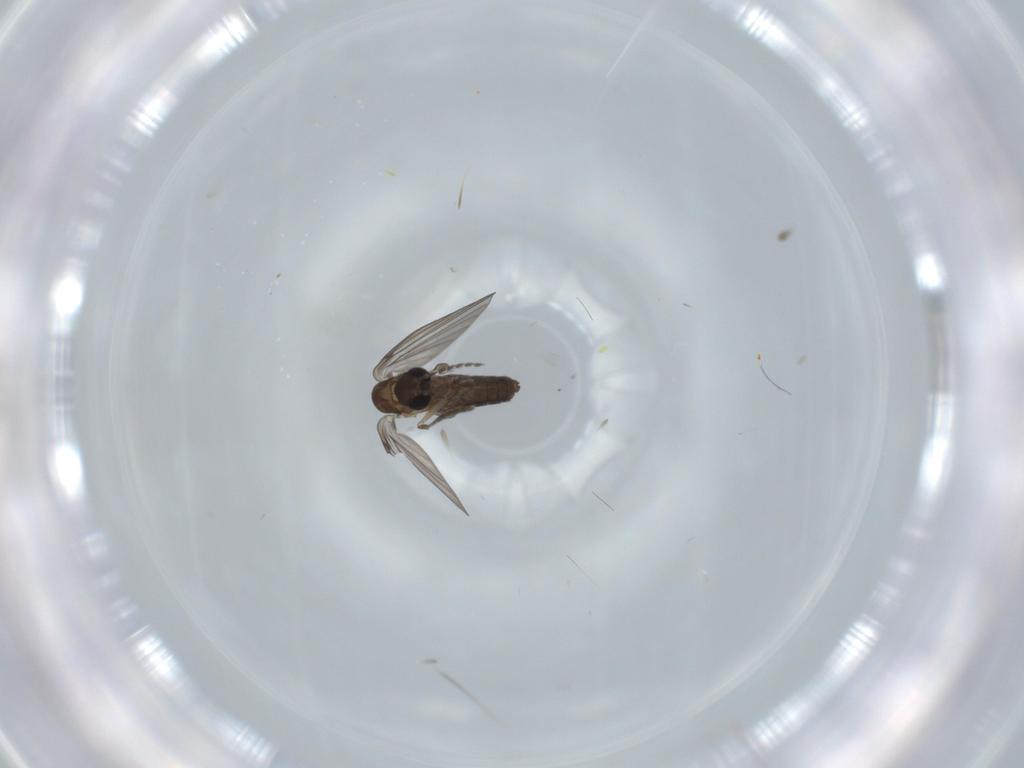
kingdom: Animalia
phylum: Arthropoda
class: Insecta
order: Diptera
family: Psychodidae
